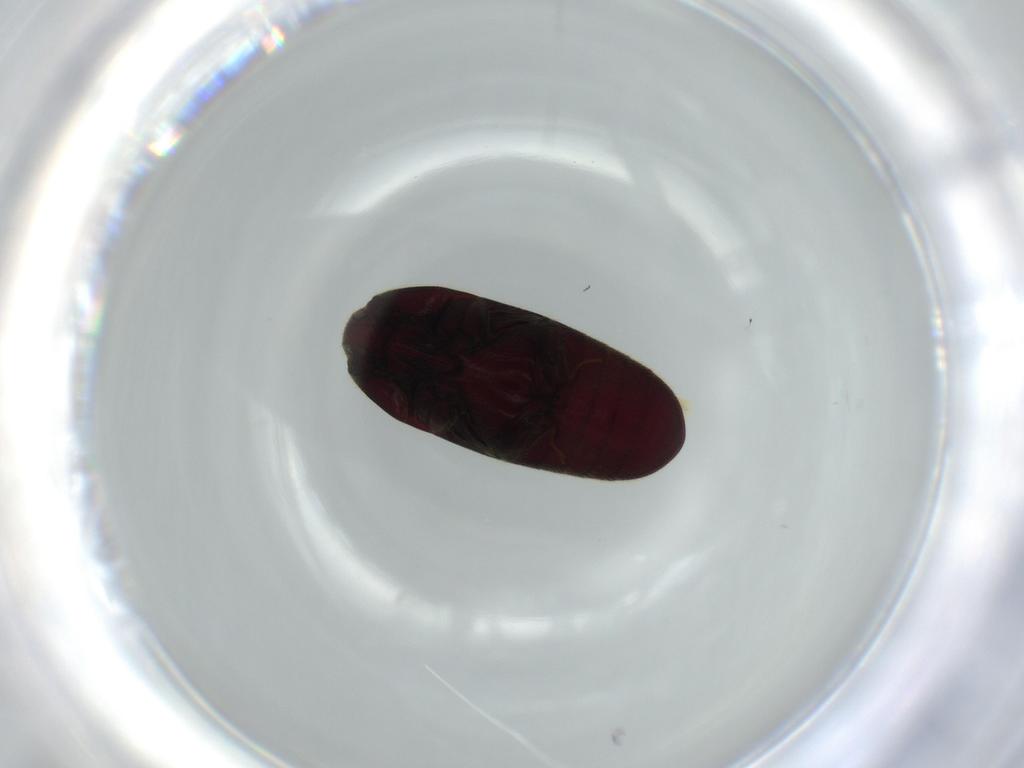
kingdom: Animalia
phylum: Arthropoda
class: Insecta
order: Coleoptera
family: Throscidae
